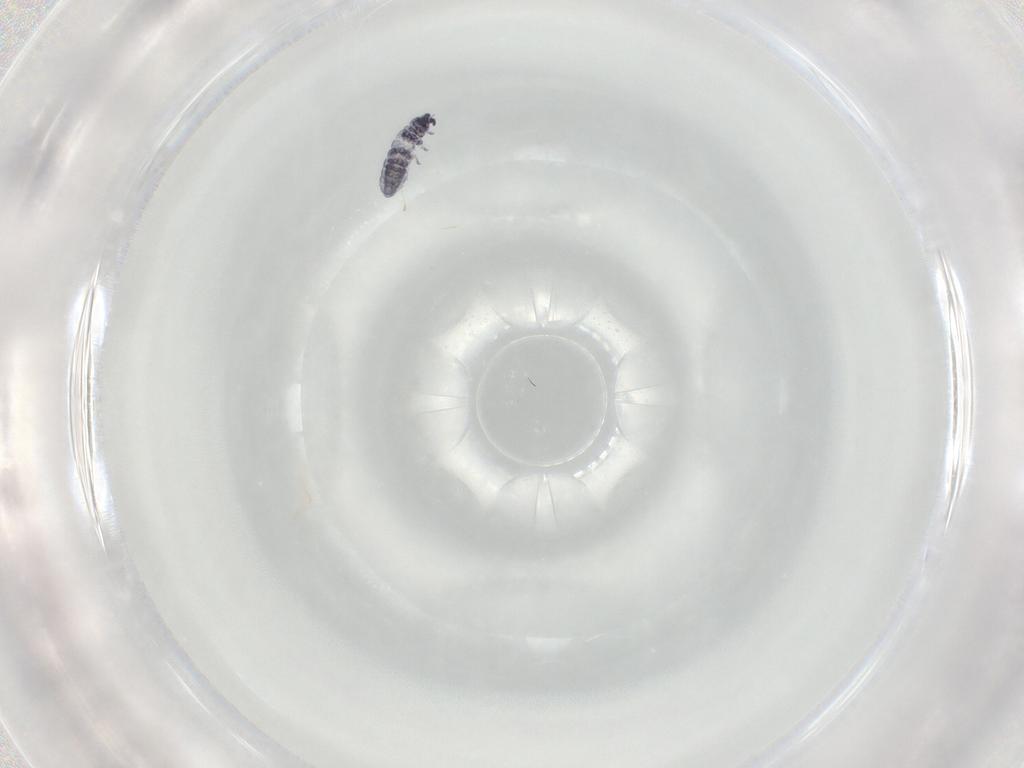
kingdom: Animalia
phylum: Arthropoda
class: Collembola
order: Poduromorpha
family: Neanuridae
